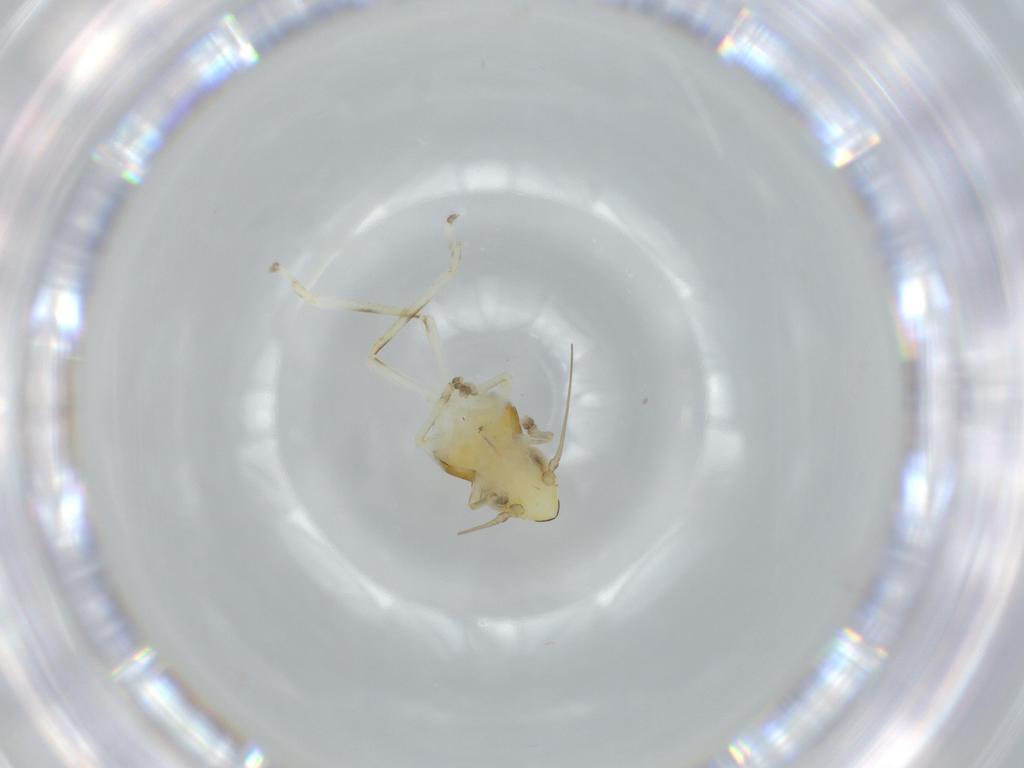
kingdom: Animalia
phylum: Arthropoda
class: Insecta
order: Hemiptera
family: Cicadellidae
